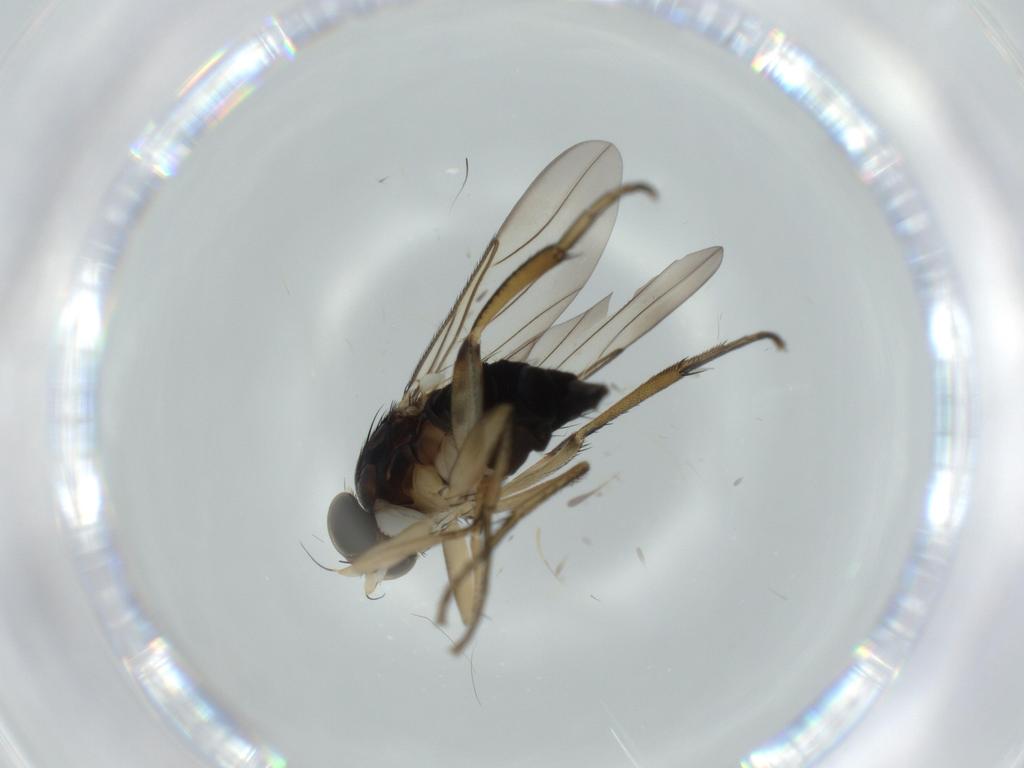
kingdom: Animalia
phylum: Arthropoda
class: Insecta
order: Diptera
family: Phoridae
